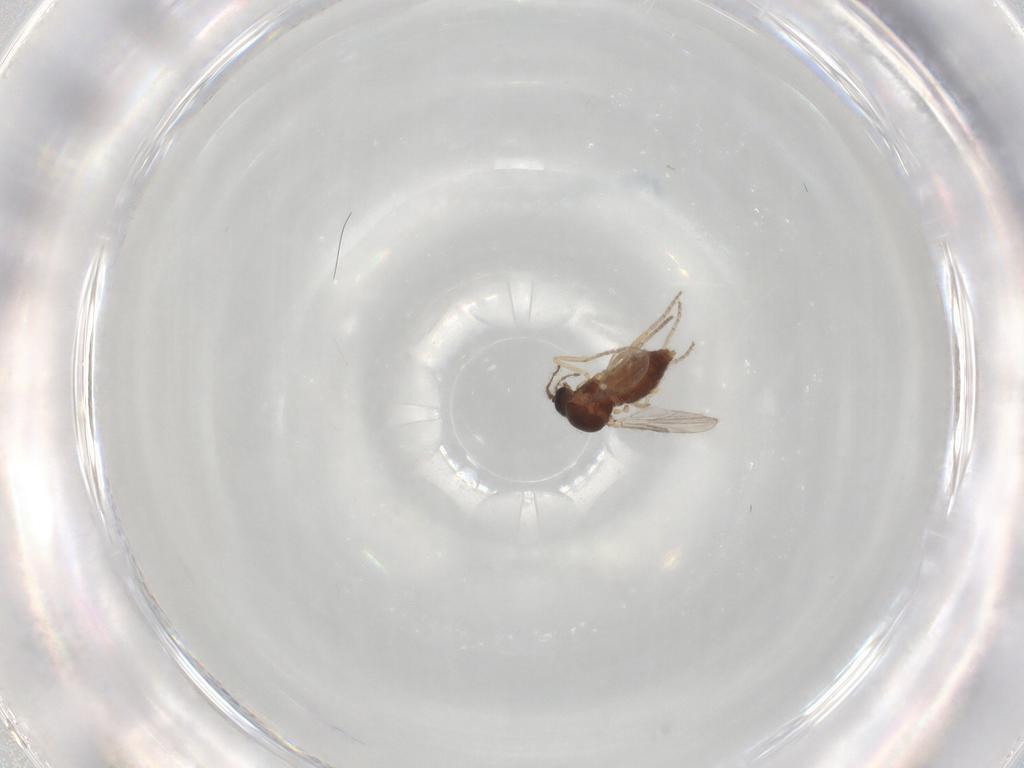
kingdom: Animalia
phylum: Arthropoda
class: Insecta
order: Diptera
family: Ceratopogonidae
